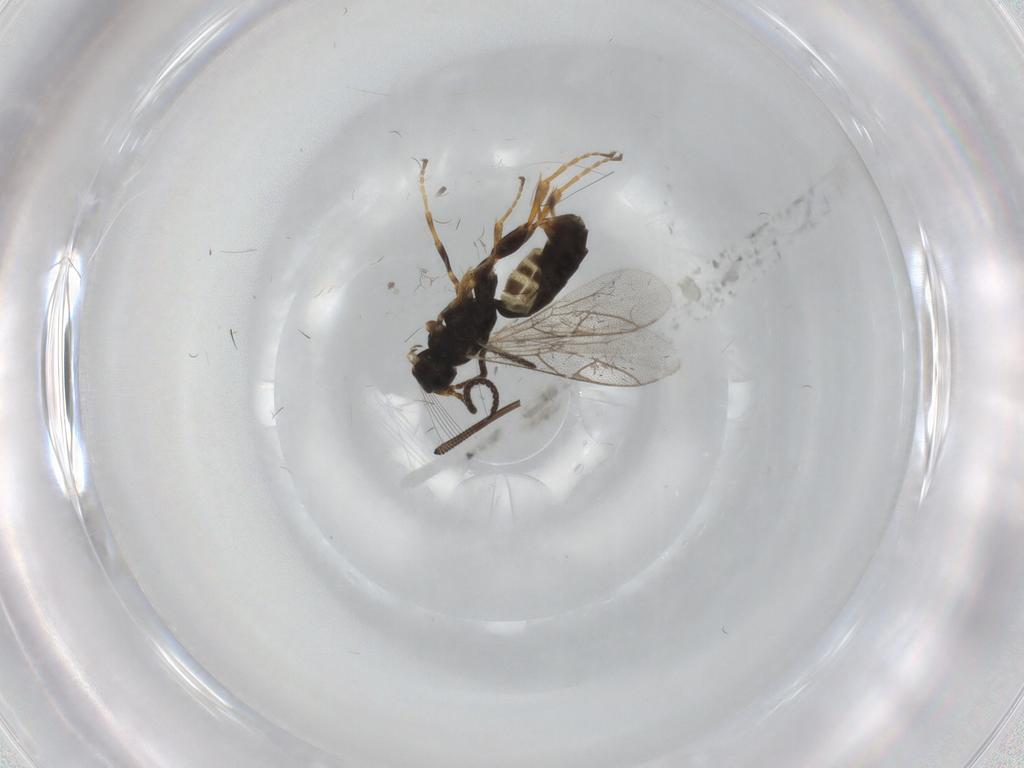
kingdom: Animalia
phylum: Arthropoda
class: Insecta
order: Hymenoptera
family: Ichneumonidae
